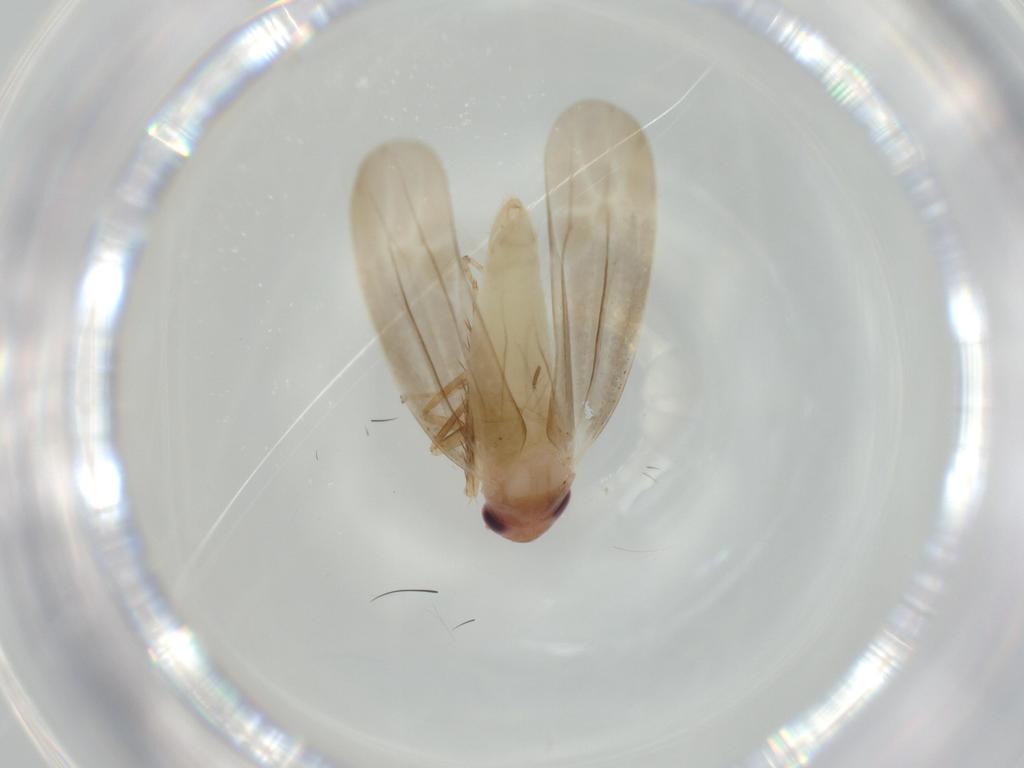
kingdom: Animalia
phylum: Arthropoda
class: Insecta
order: Hemiptera
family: Cicadellidae
